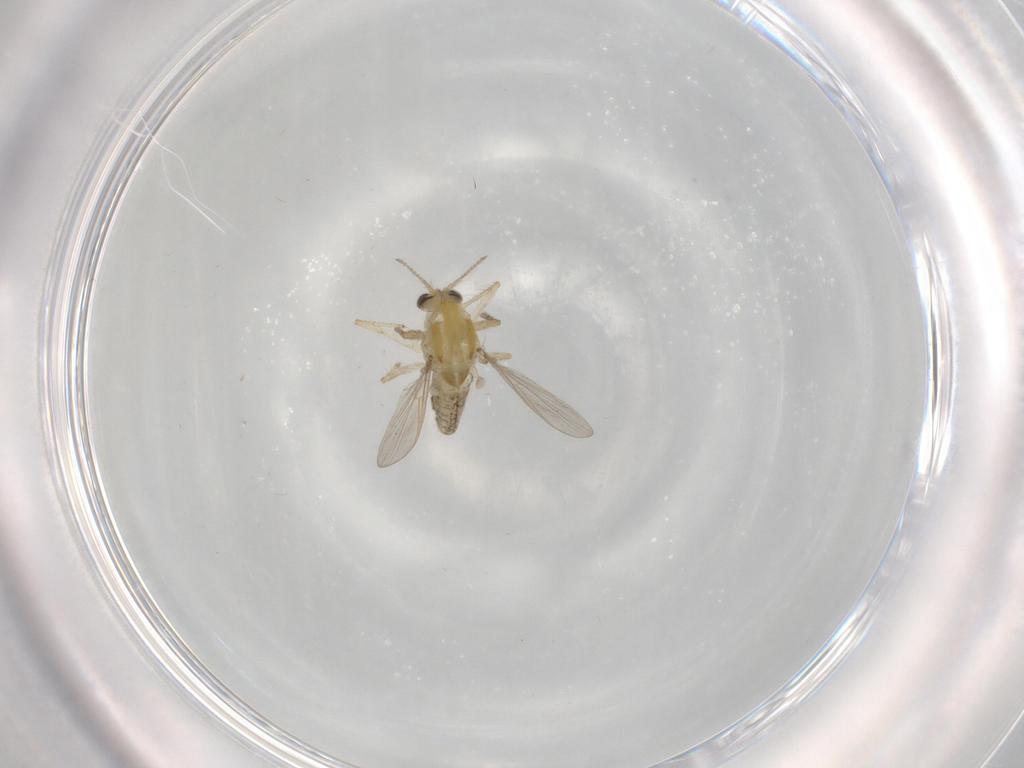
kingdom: Animalia
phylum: Arthropoda
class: Insecta
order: Diptera
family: Chironomidae
